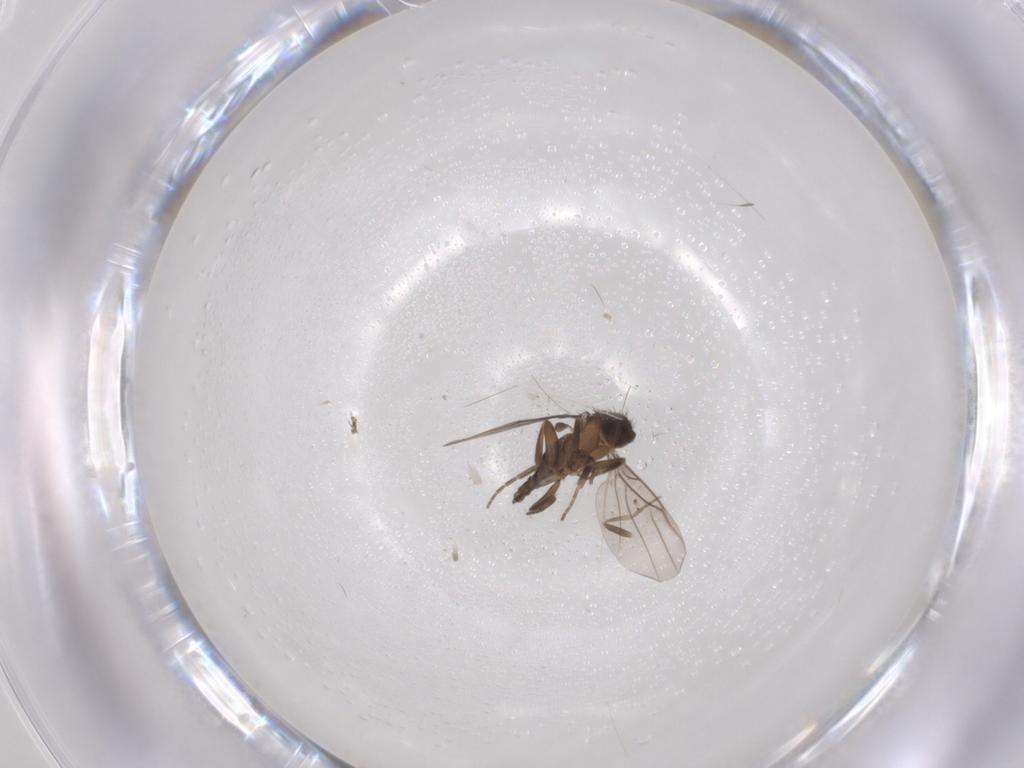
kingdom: Animalia
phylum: Arthropoda
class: Insecta
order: Diptera
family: Phoridae
